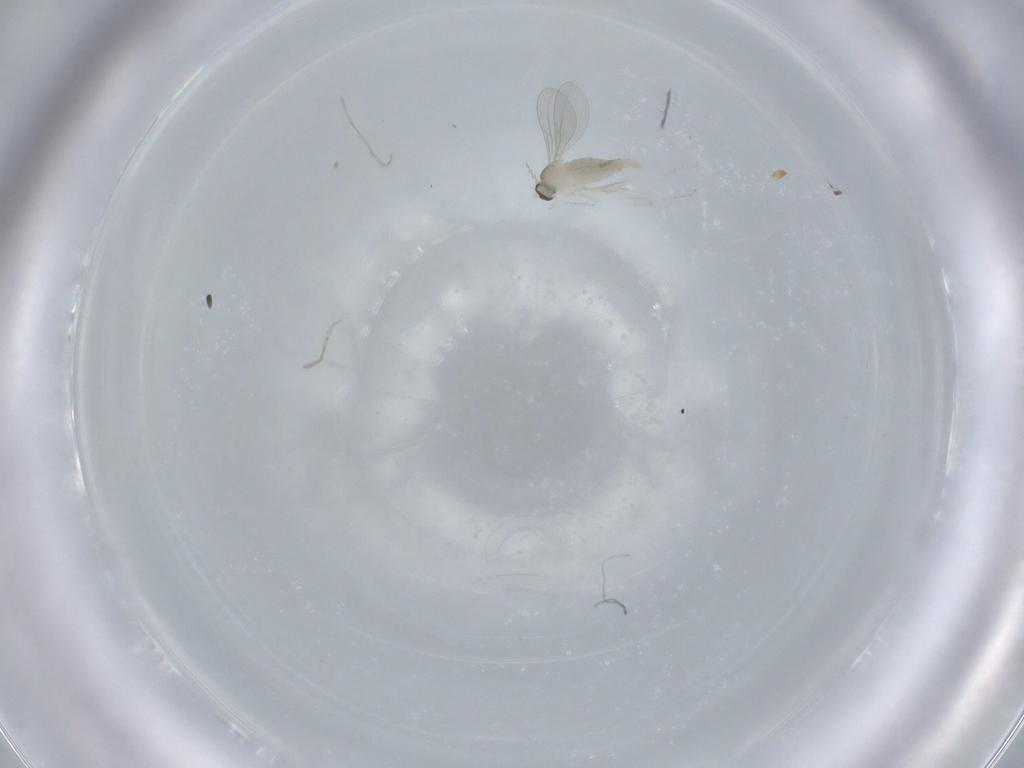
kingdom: Animalia
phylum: Arthropoda
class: Insecta
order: Diptera
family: Cecidomyiidae
